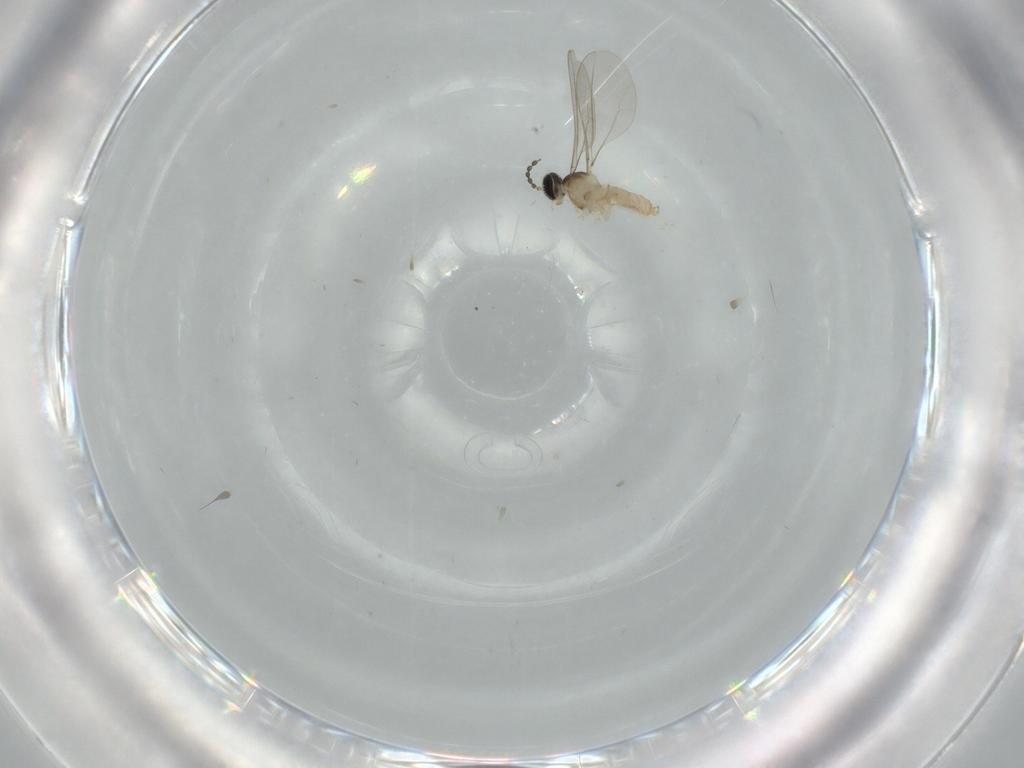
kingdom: Animalia
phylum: Arthropoda
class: Insecta
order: Diptera
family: Cecidomyiidae
